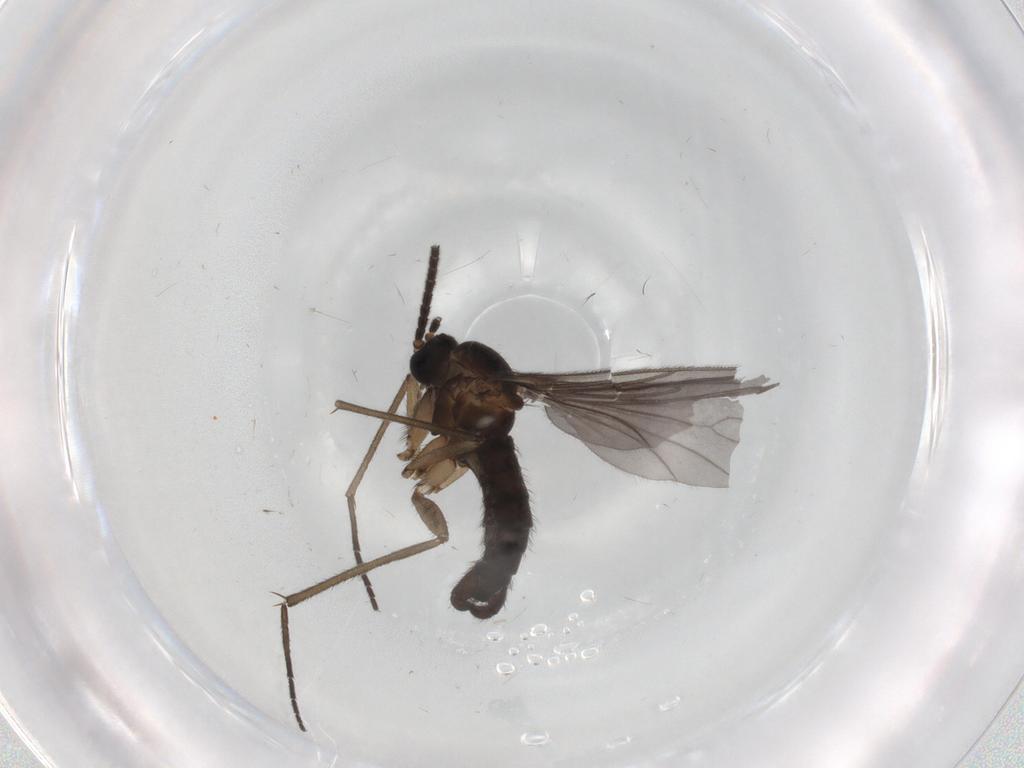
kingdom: Animalia
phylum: Arthropoda
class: Insecta
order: Diptera
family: Sciaridae
